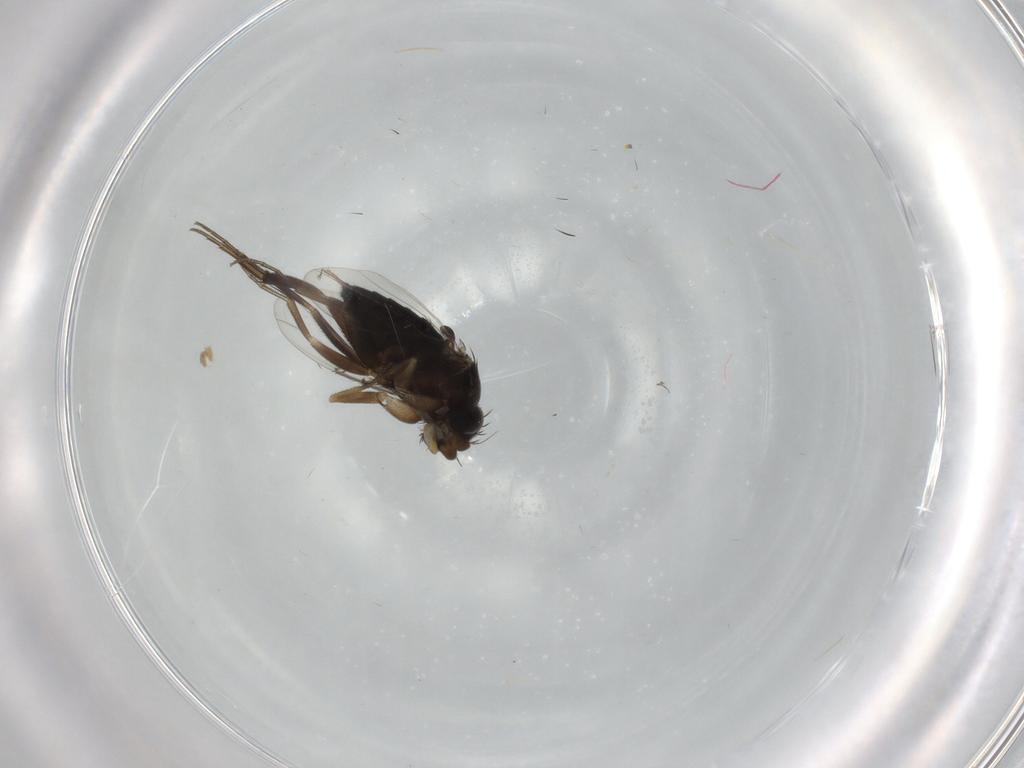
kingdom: Animalia
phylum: Arthropoda
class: Insecta
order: Diptera
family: Phoridae
